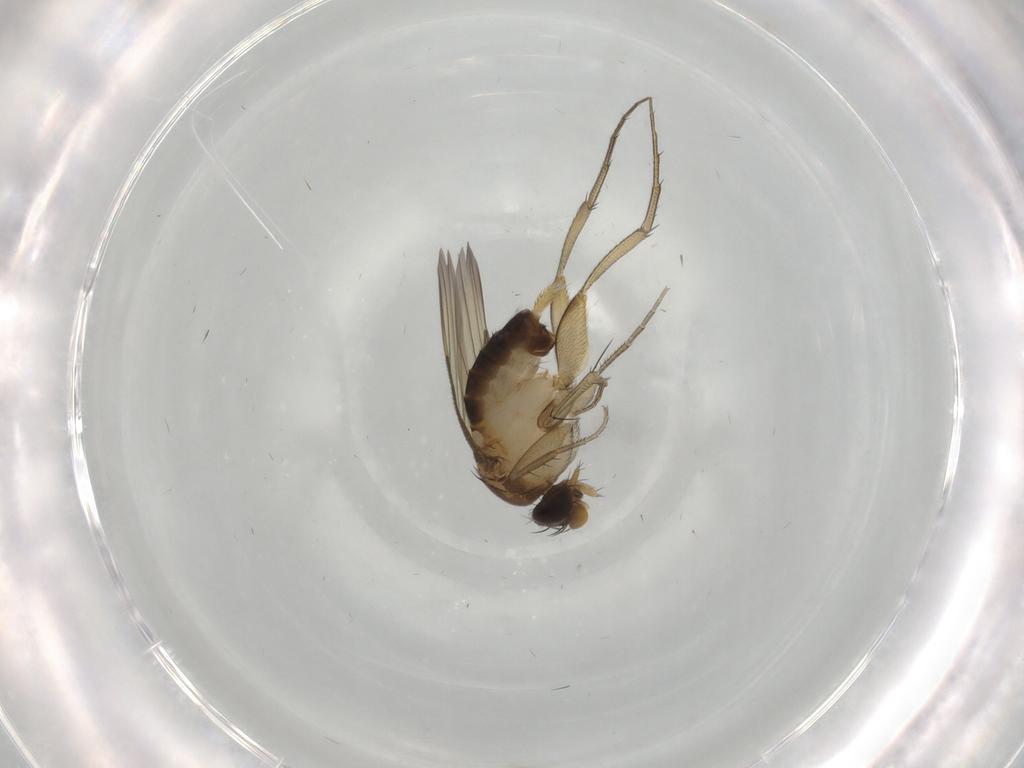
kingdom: Animalia
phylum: Arthropoda
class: Insecta
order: Diptera
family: Phoridae
